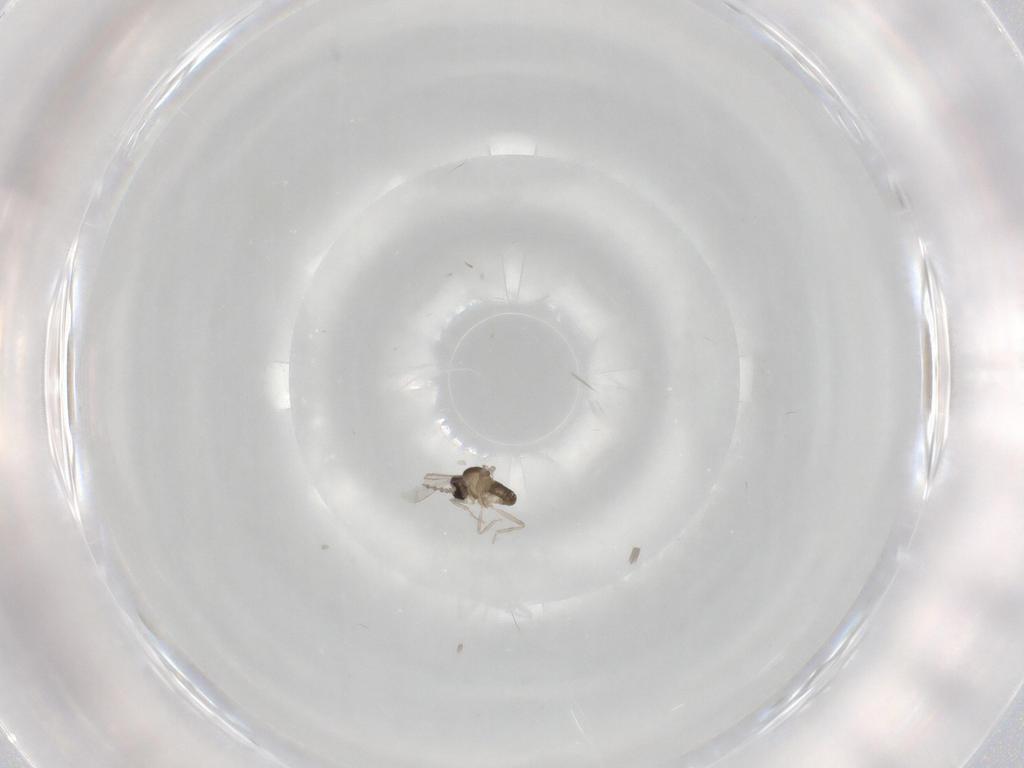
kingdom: Animalia
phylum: Arthropoda
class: Insecta
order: Diptera
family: Cecidomyiidae
